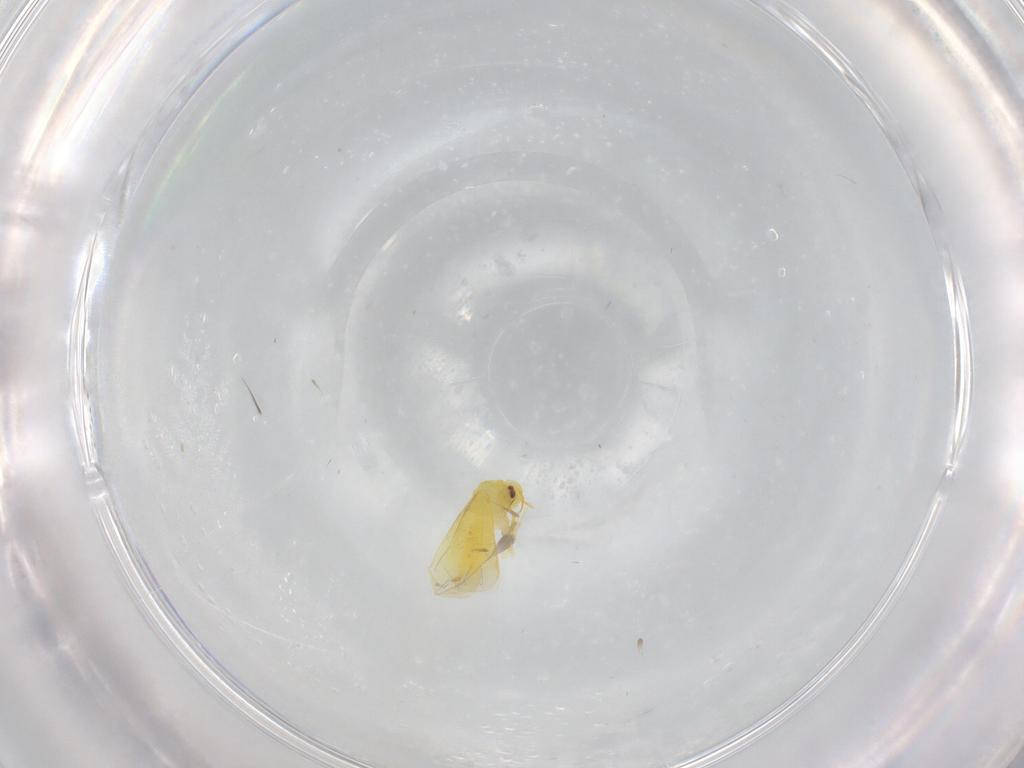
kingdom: Animalia
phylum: Arthropoda
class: Insecta
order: Hemiptera
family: Aleyrodidae
